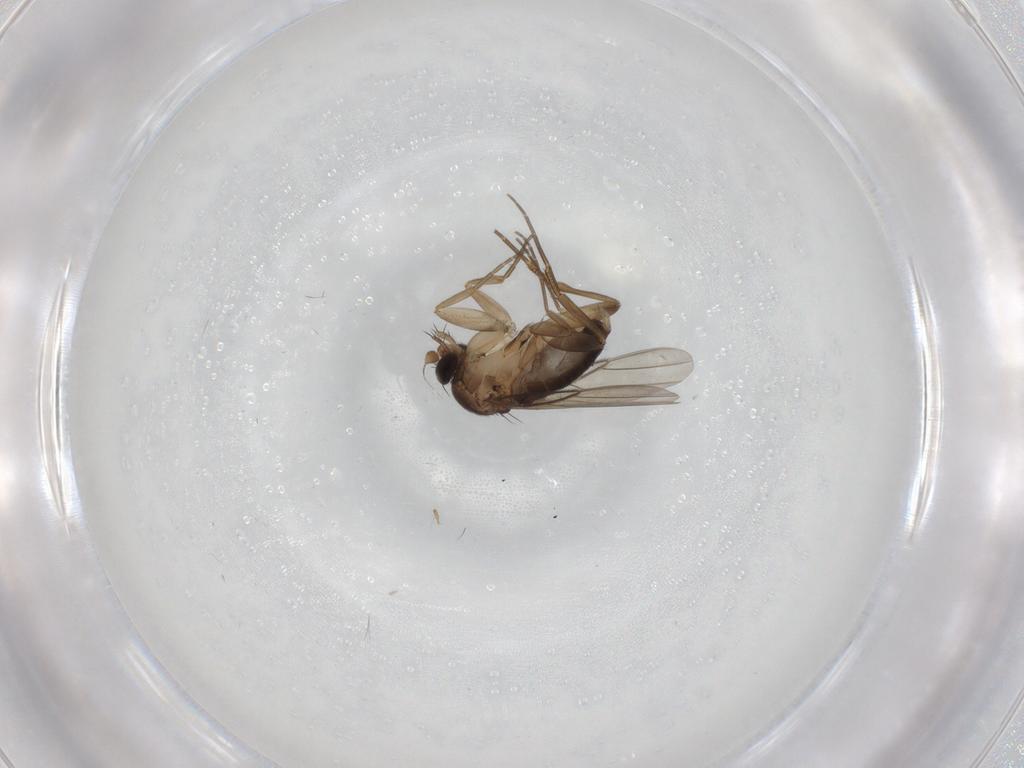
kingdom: Animalia
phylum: Arthropoda
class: Insecta
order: Diptera
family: Phoridae
